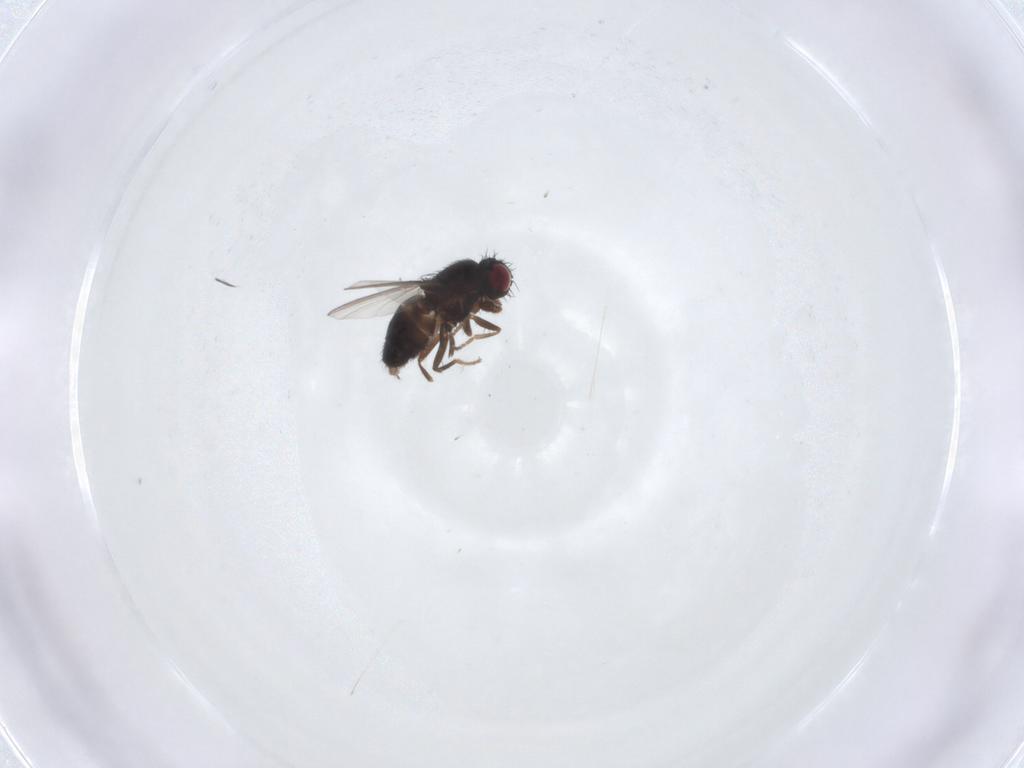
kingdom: Animalia
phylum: Arthropoda
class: Insecta
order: Diptera
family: Carnidae
